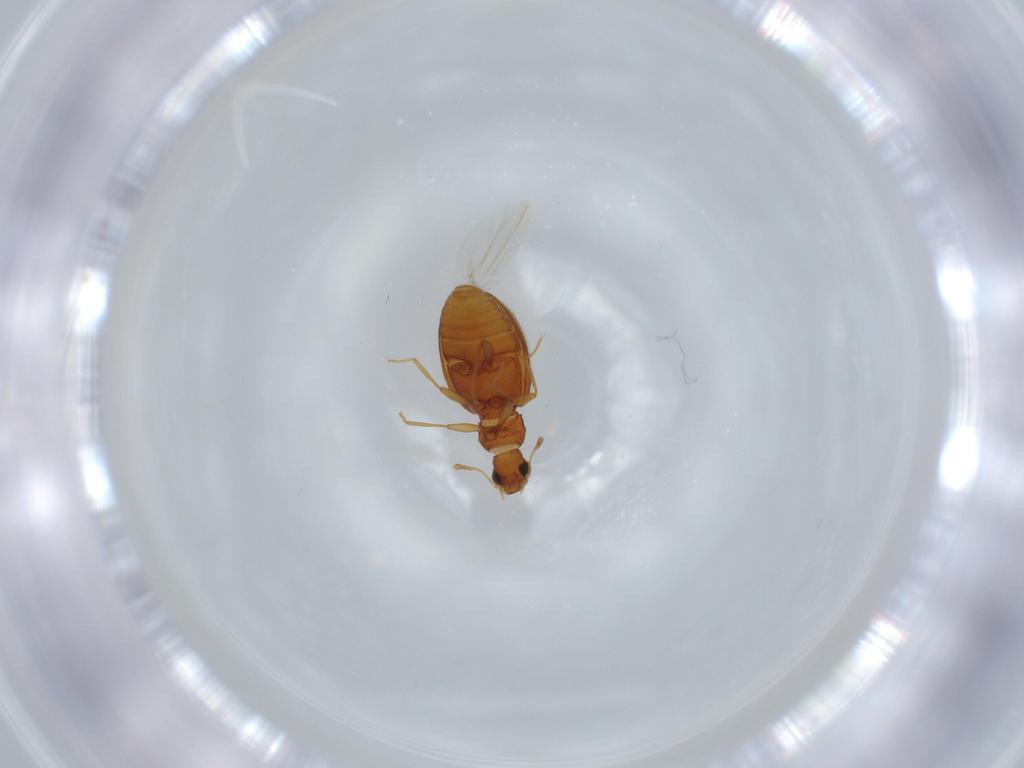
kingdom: Animalia
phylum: Arthropoda
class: Insecta
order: Coleoptera
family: Latridiidae
